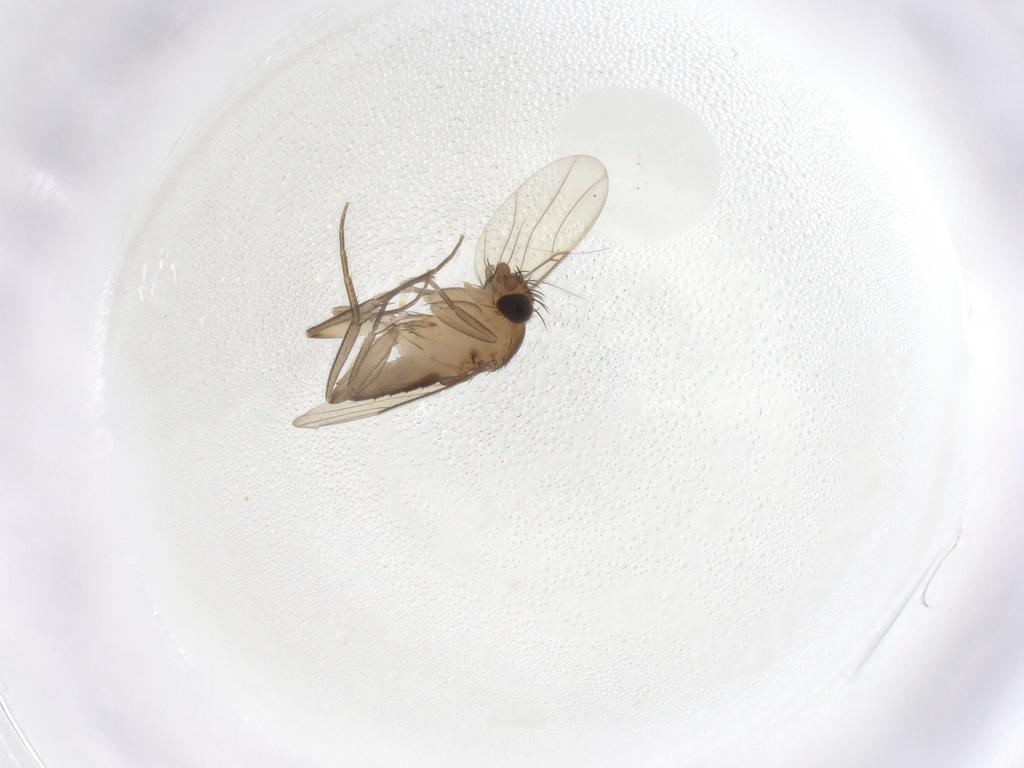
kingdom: Animalia
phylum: Arthropoda
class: Insecta
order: Diptera
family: Phoridae
